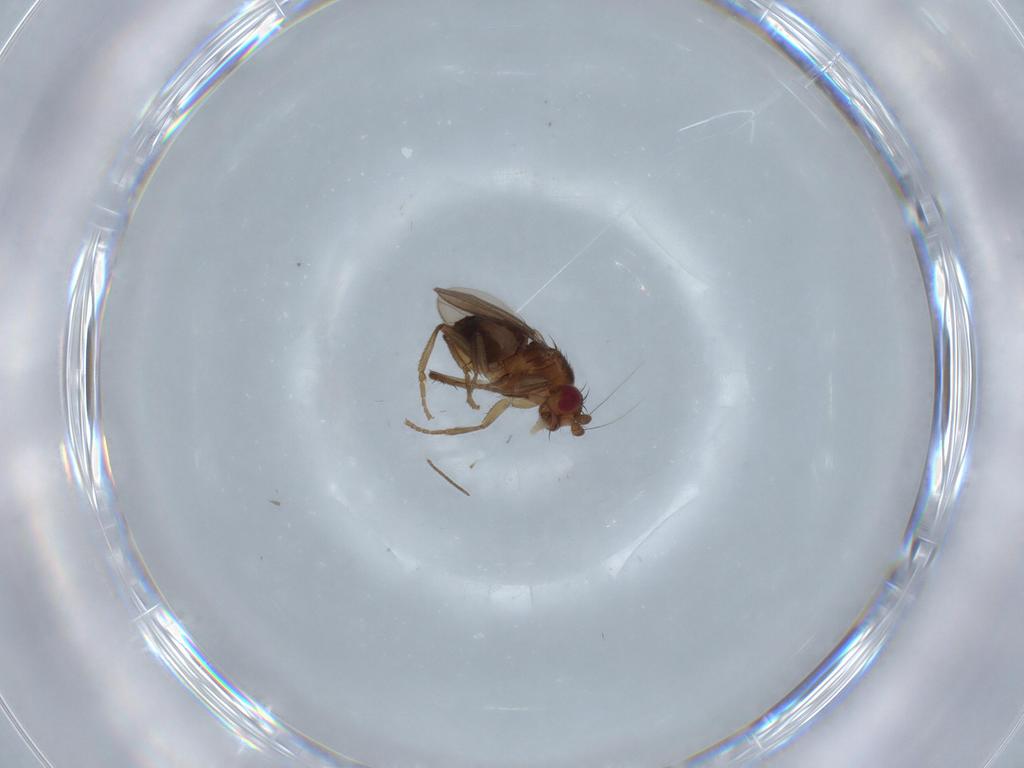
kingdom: Animalia
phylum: Arthropoda
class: Insecta
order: Diptera
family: Sphaeroceridae
